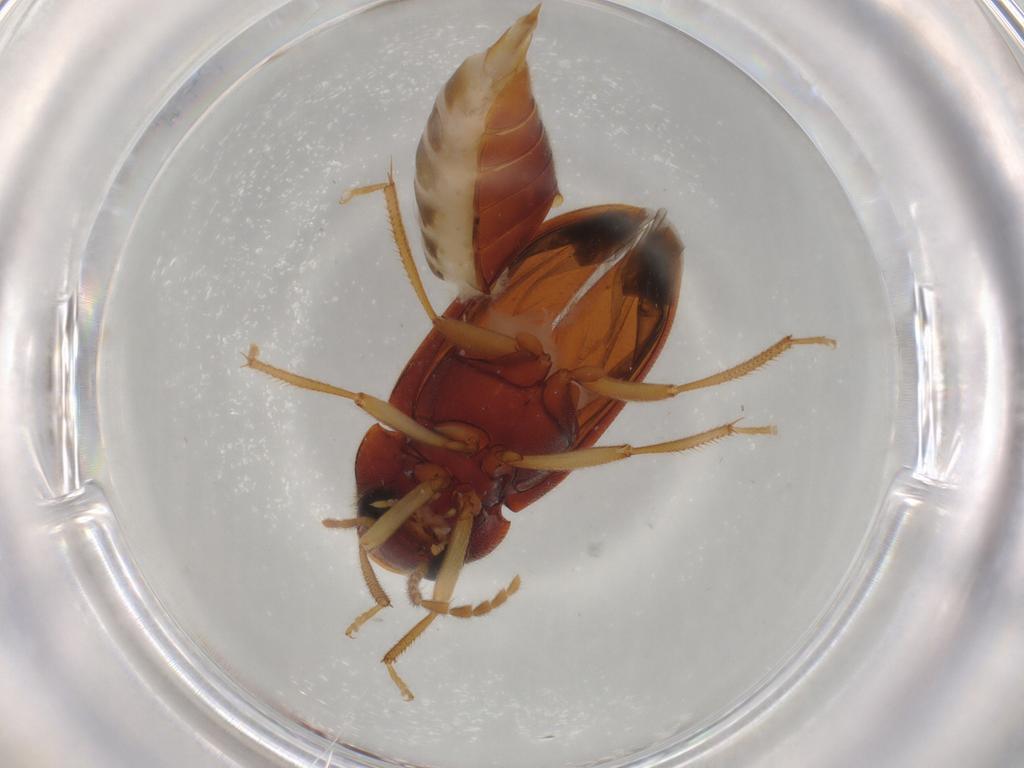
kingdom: Animalia
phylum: Arthropoda
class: Insecta
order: Coleoptera
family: Ptilodactylidae
